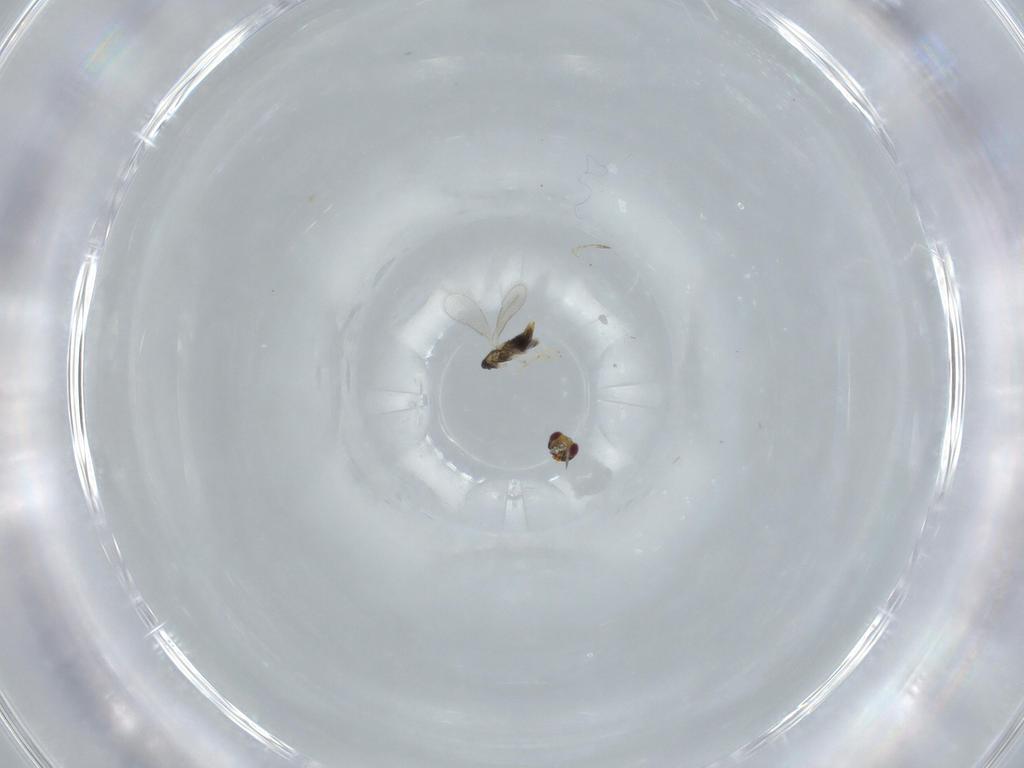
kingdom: Animalia
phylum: Arthropoda
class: Insecta
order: Hymenoptera
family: Aphelinidae
